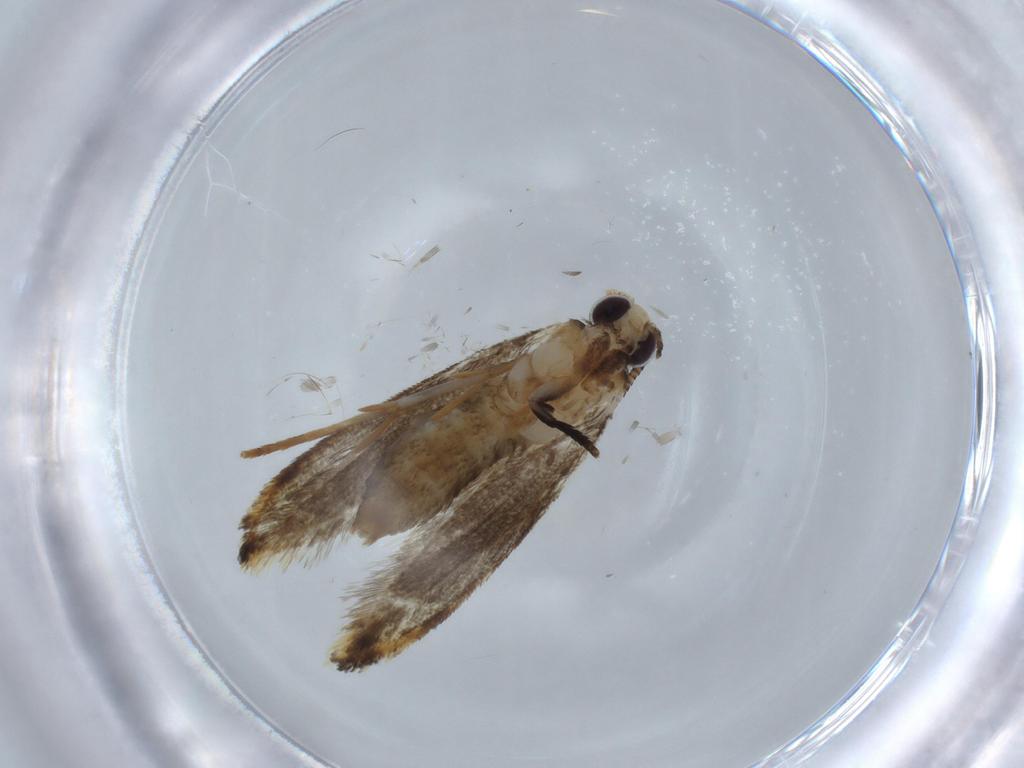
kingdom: Animalia
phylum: Arthropoda
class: Insecta
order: Lepidoptera
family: Tineidae
